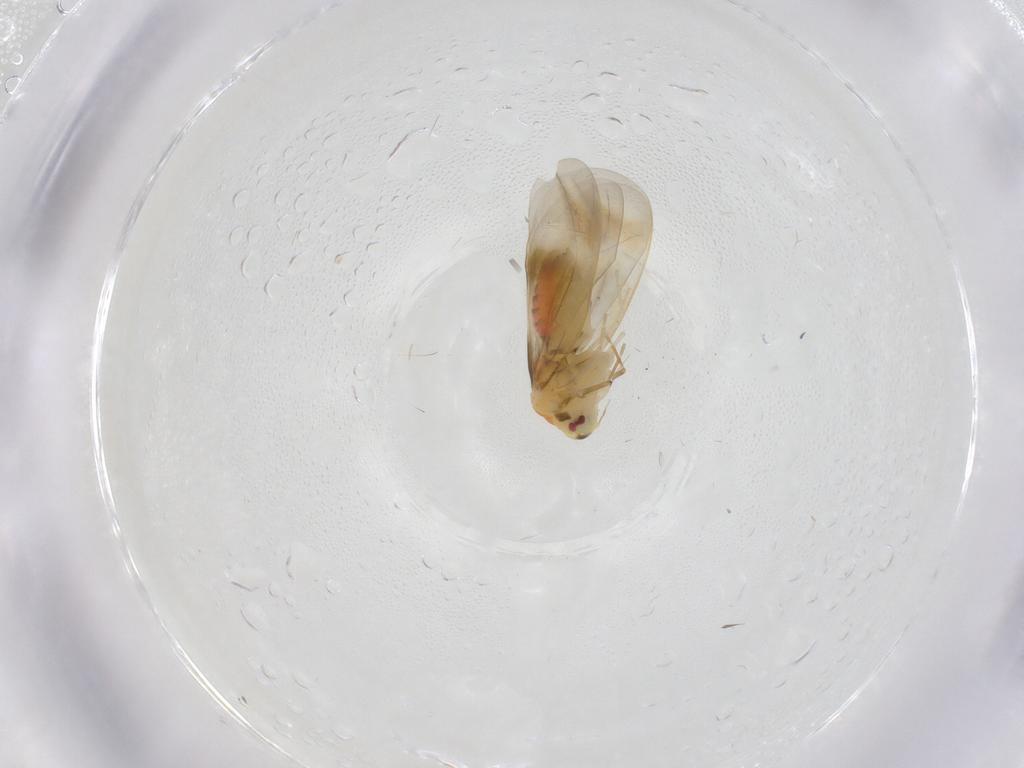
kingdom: Animalia
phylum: Arthropoda
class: Insecta
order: Hemiptera
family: Aleyrodidae
